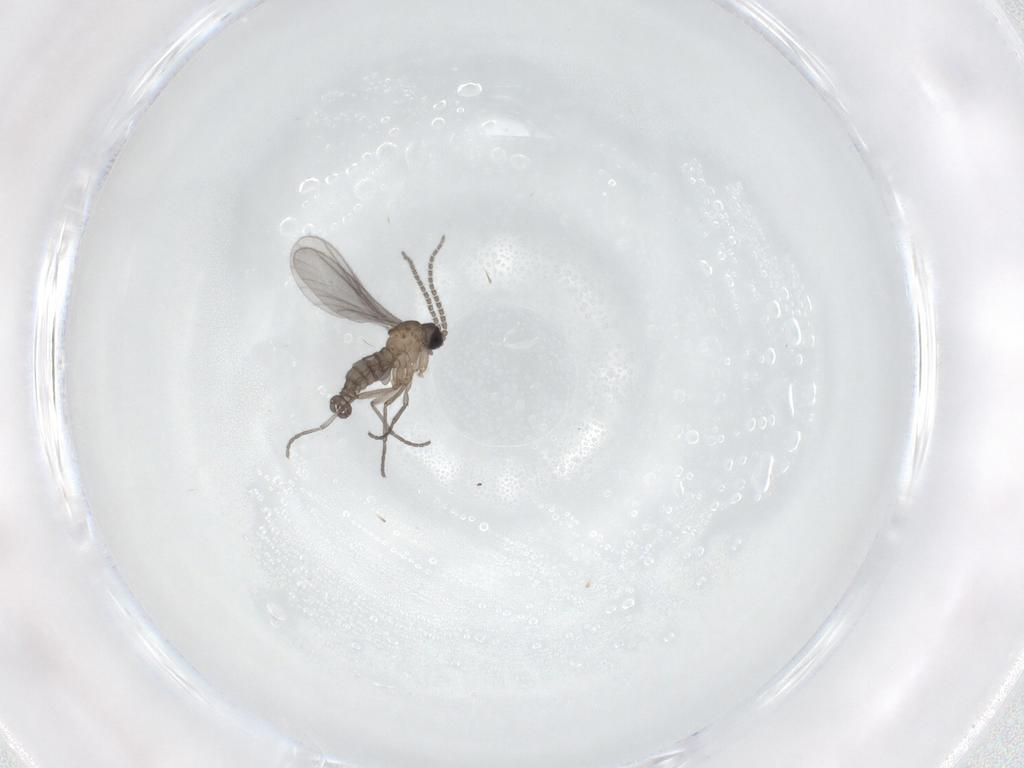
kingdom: Animalia
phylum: Arthropoda
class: Insecta
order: Diptera
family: Sciaridae
